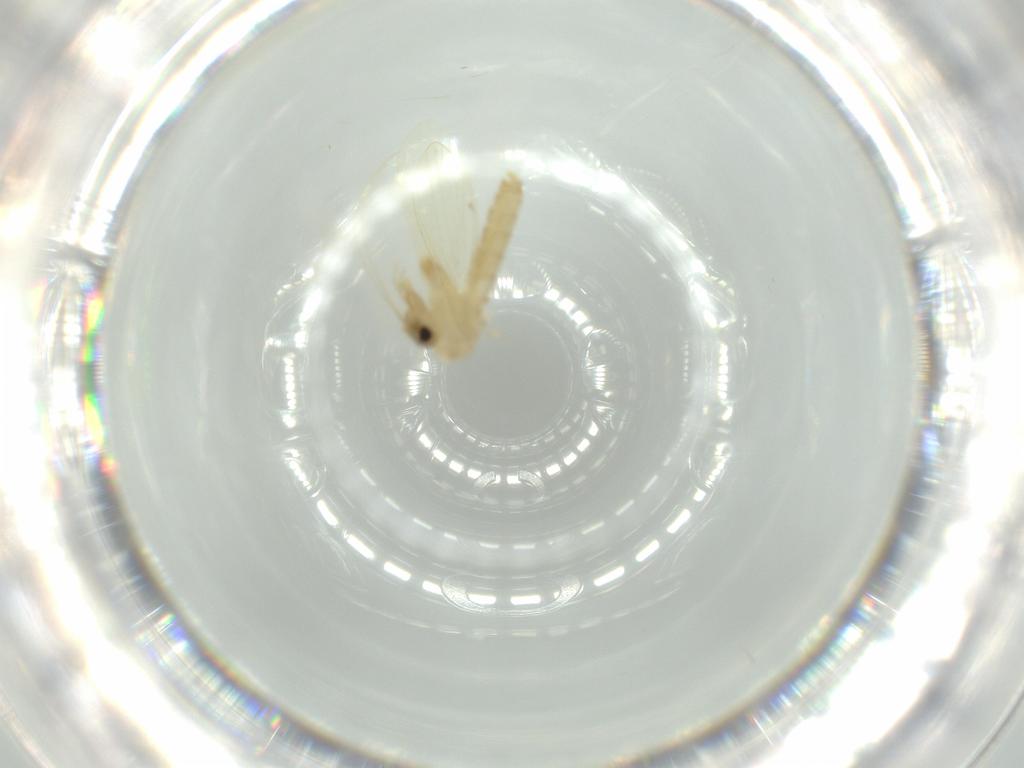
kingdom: Animalia
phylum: Arthropoda
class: Insecta
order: Diptera
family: Psychodidae
